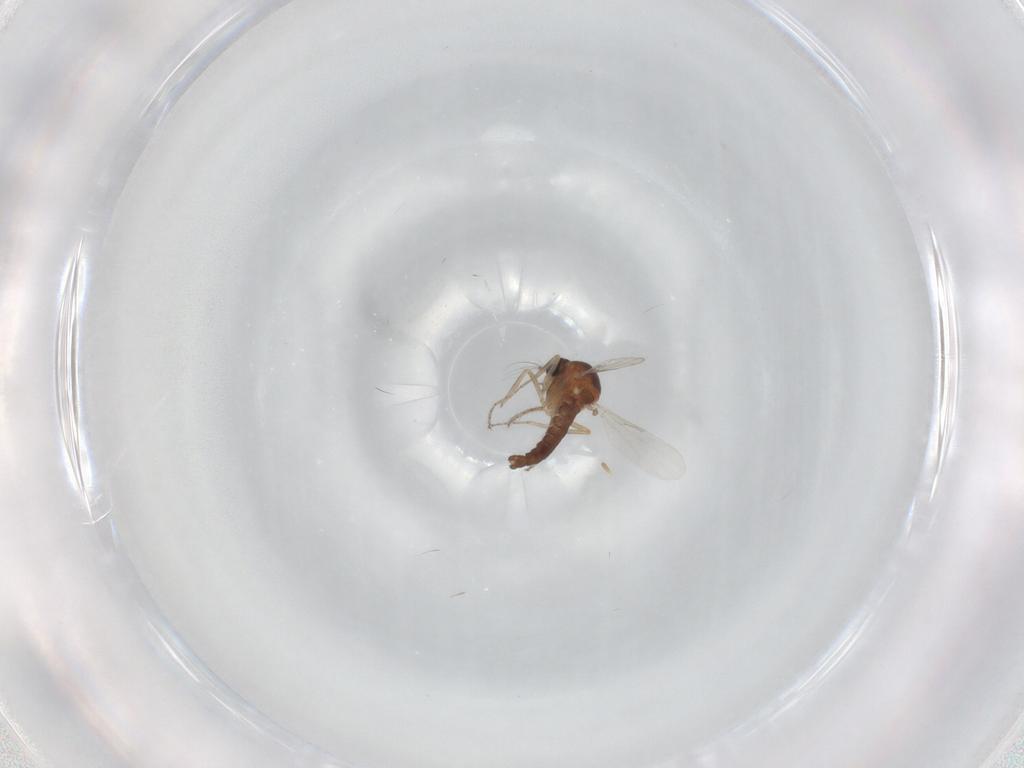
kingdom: Animalia
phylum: Arthropoda
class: Insecta
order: Diptera
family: Ceratopogonidae
